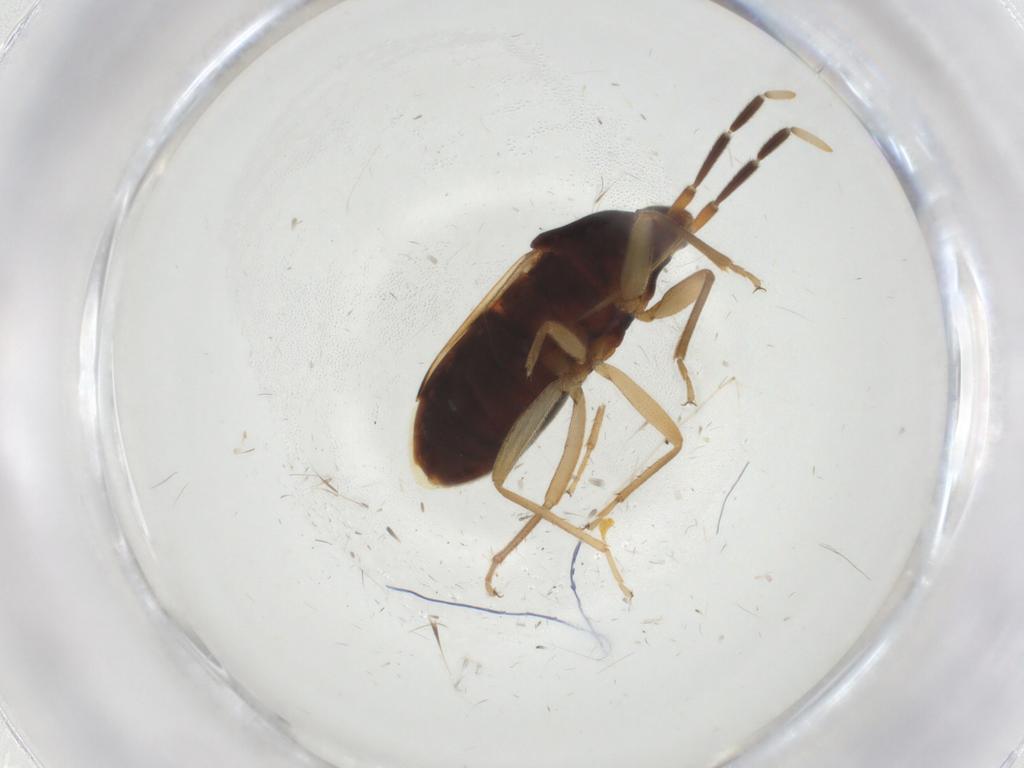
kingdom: Animalia
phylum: Arthropoda
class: Insecta
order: Hemiptera
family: Rhyparochromidae
